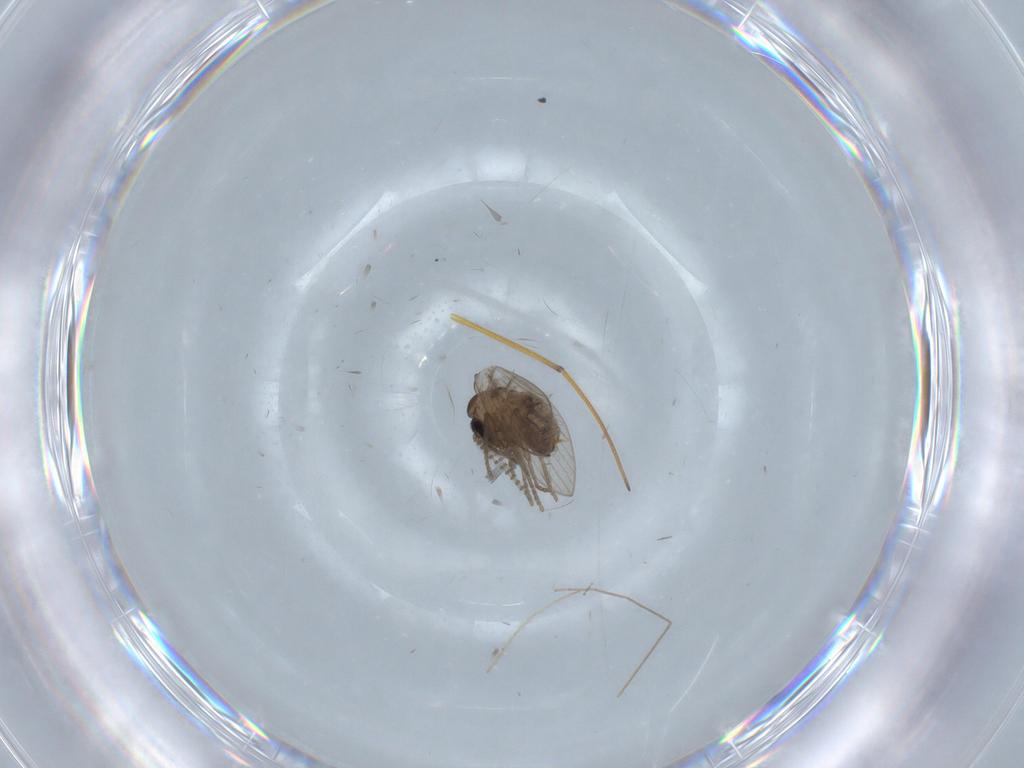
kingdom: Animalia
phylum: Arthropoda
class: Insecta
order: Diptera
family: Psychodidae
